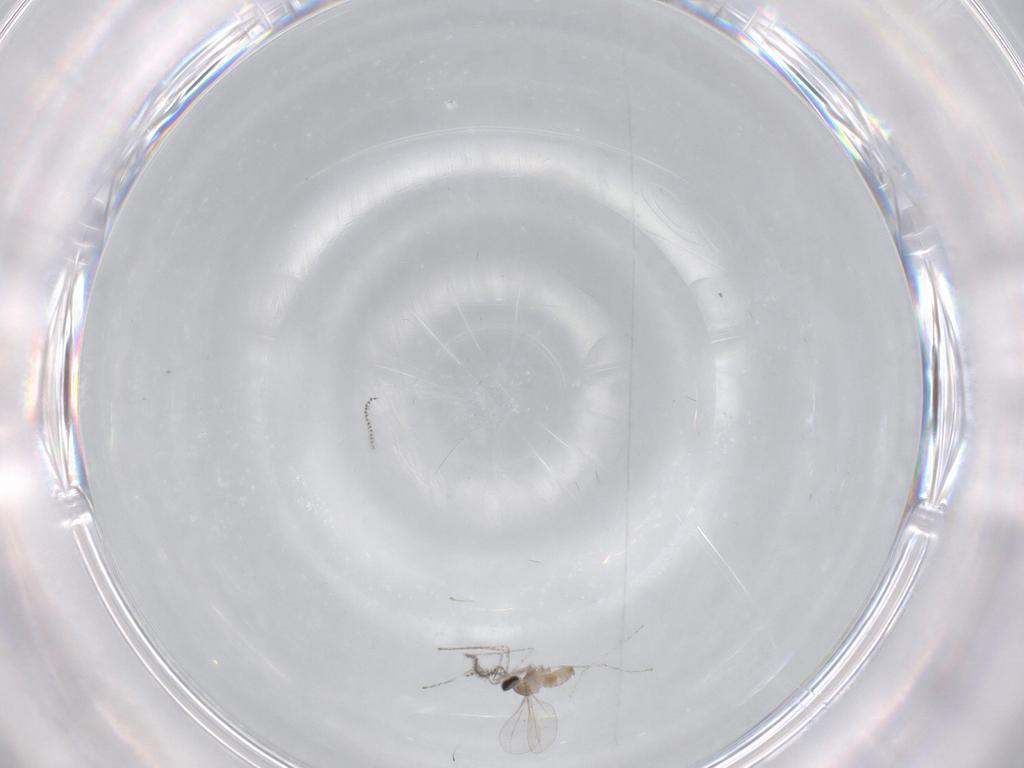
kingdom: Animalia
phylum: Arthropoda
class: Insecta
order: Diptera
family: Cecidomyiidae
